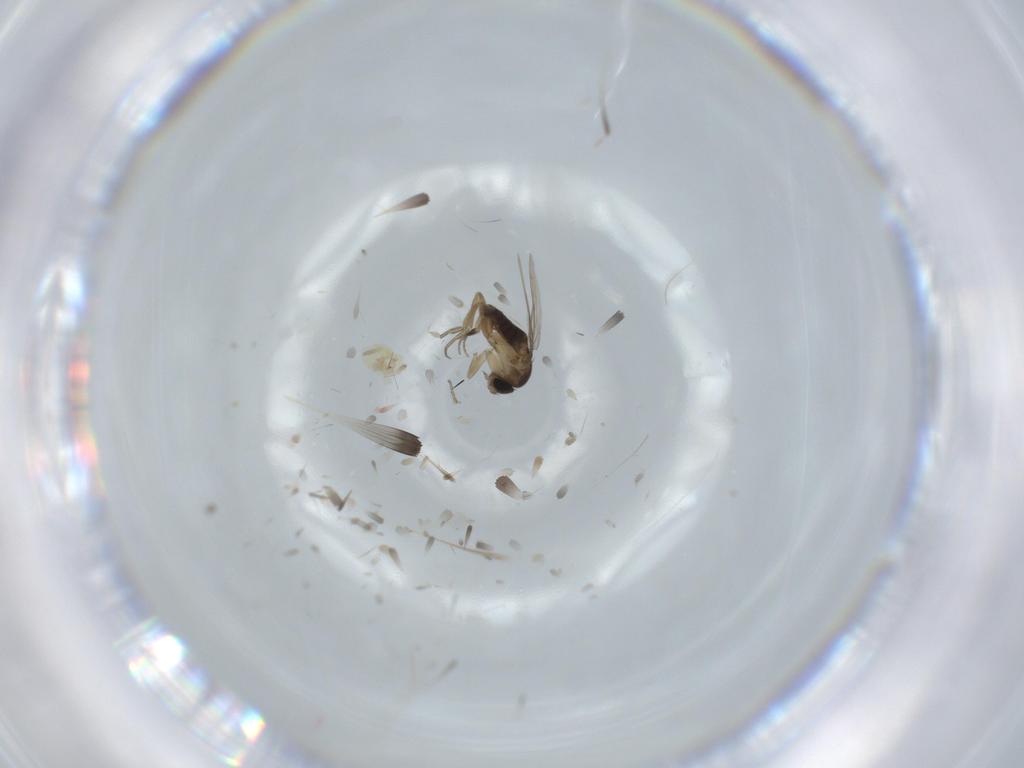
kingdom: Animalia
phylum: Arthropoda
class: Insecta
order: Diptera
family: Phoridae
